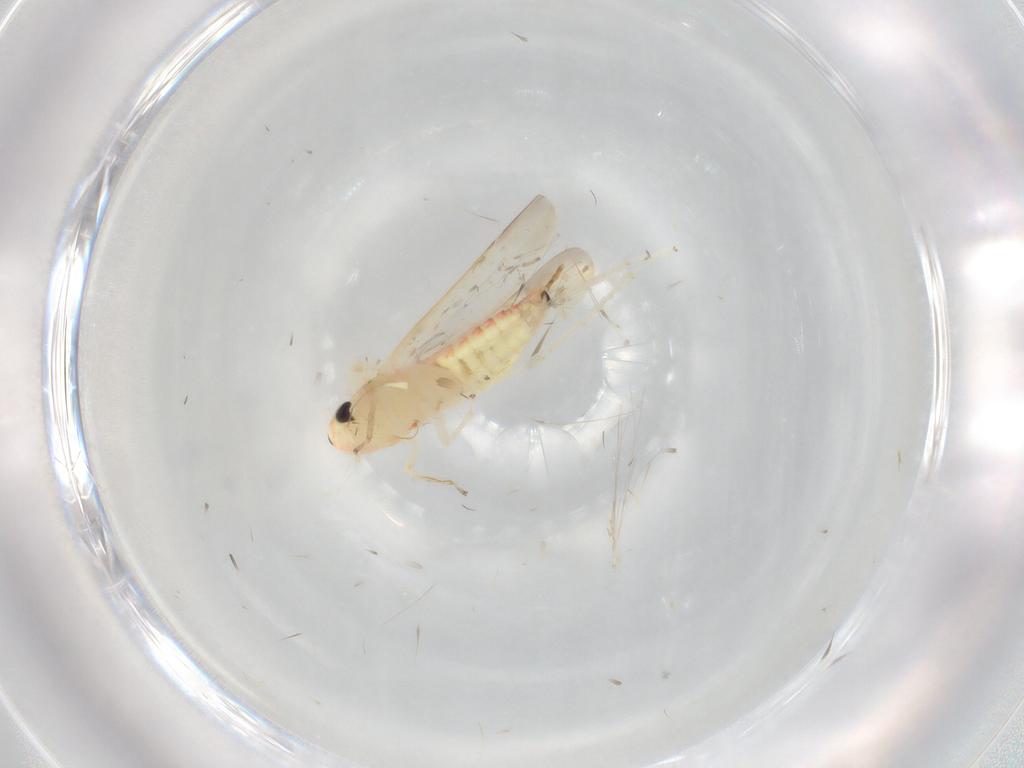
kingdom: Animalia
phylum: Arthropoda
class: Insecta
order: Hemiptera
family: Cicadellidae
